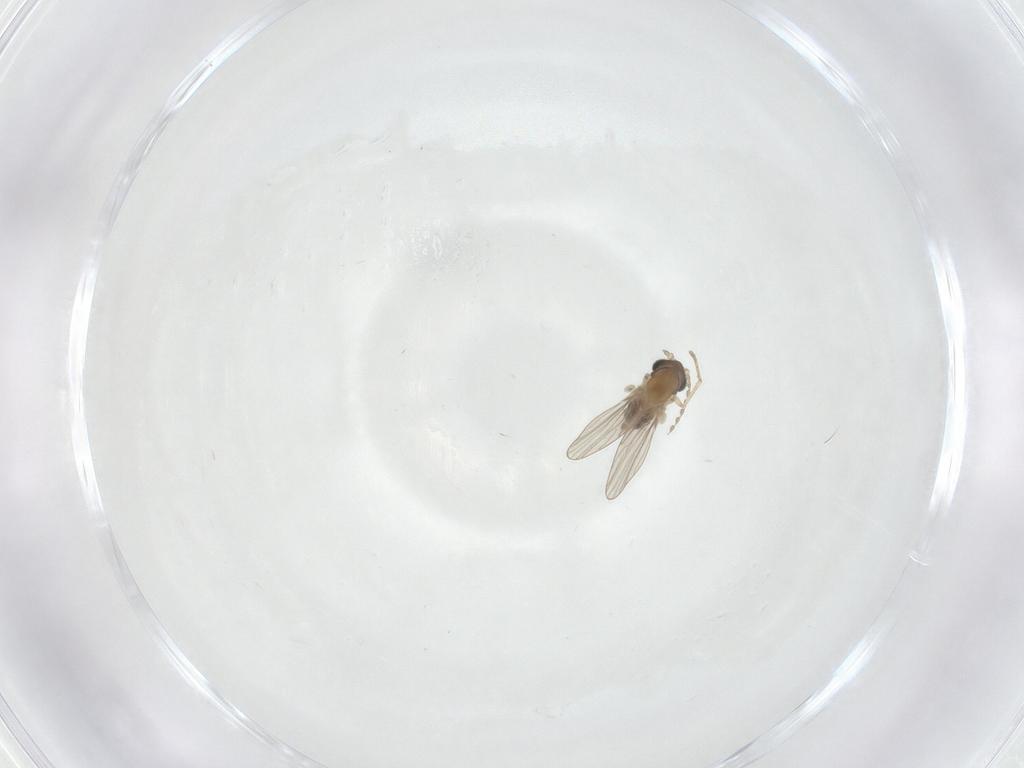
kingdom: Animalia
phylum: Arthropoda
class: Insecta
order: Diptera
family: Psychodidae
